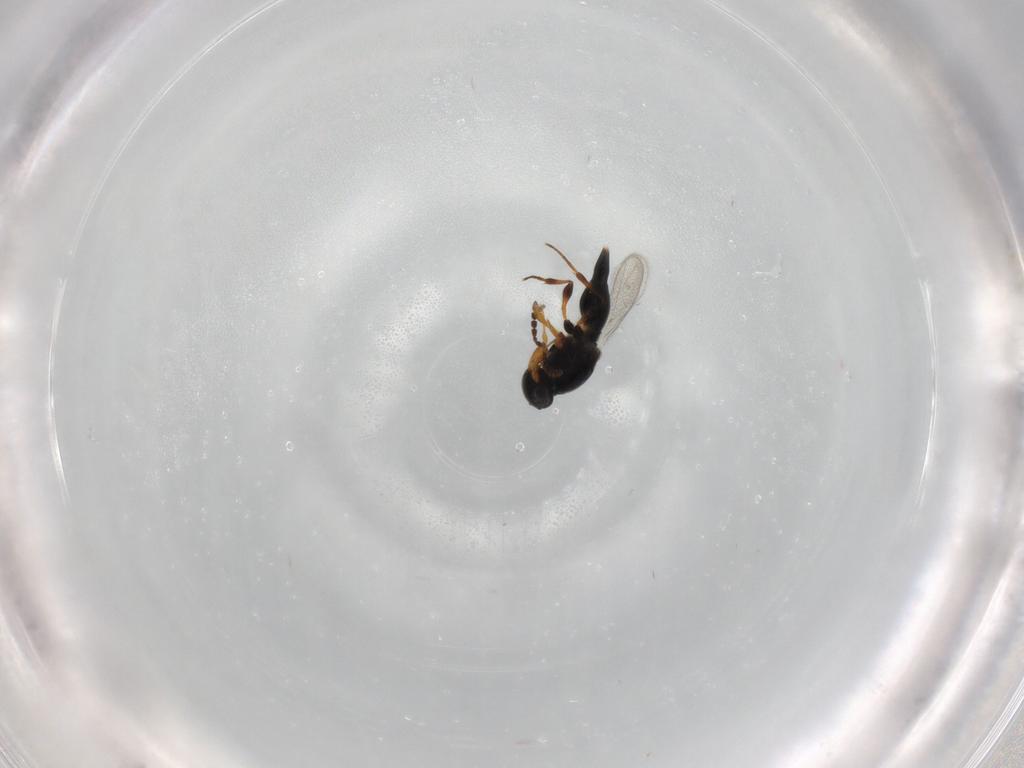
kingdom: Animalia
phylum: Arthropoda
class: Insecta
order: Hymenoptera
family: Platygastridae
